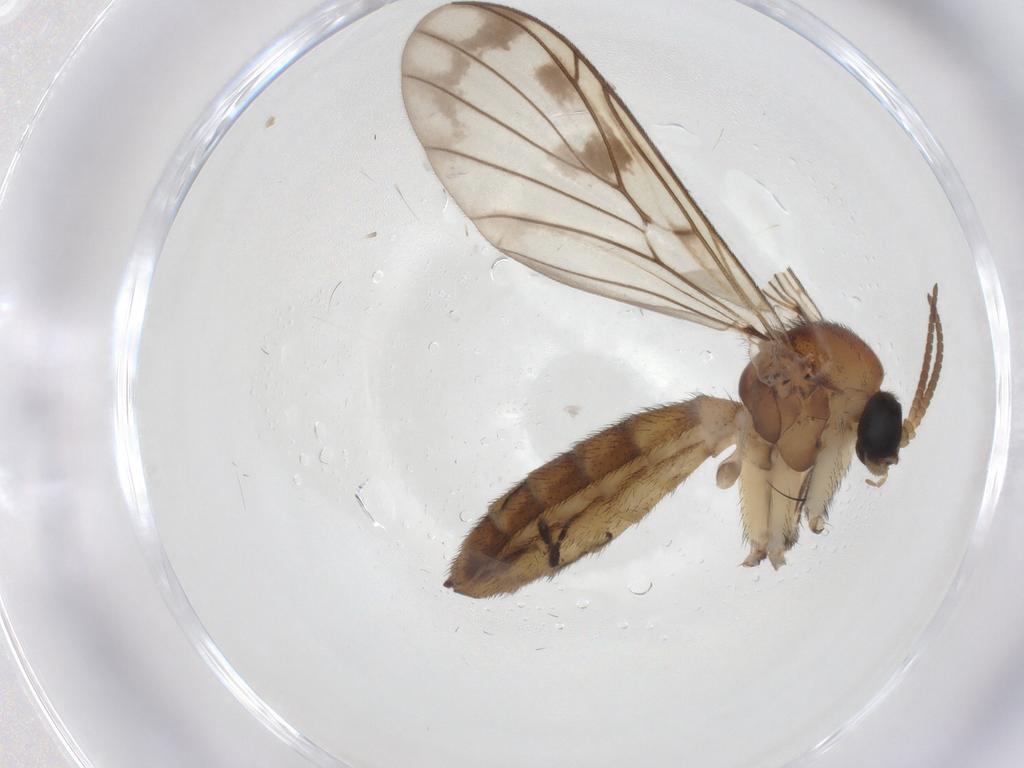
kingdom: Animalia
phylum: Arthropoda
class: Insecta
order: Diptera
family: Keroplatidae
